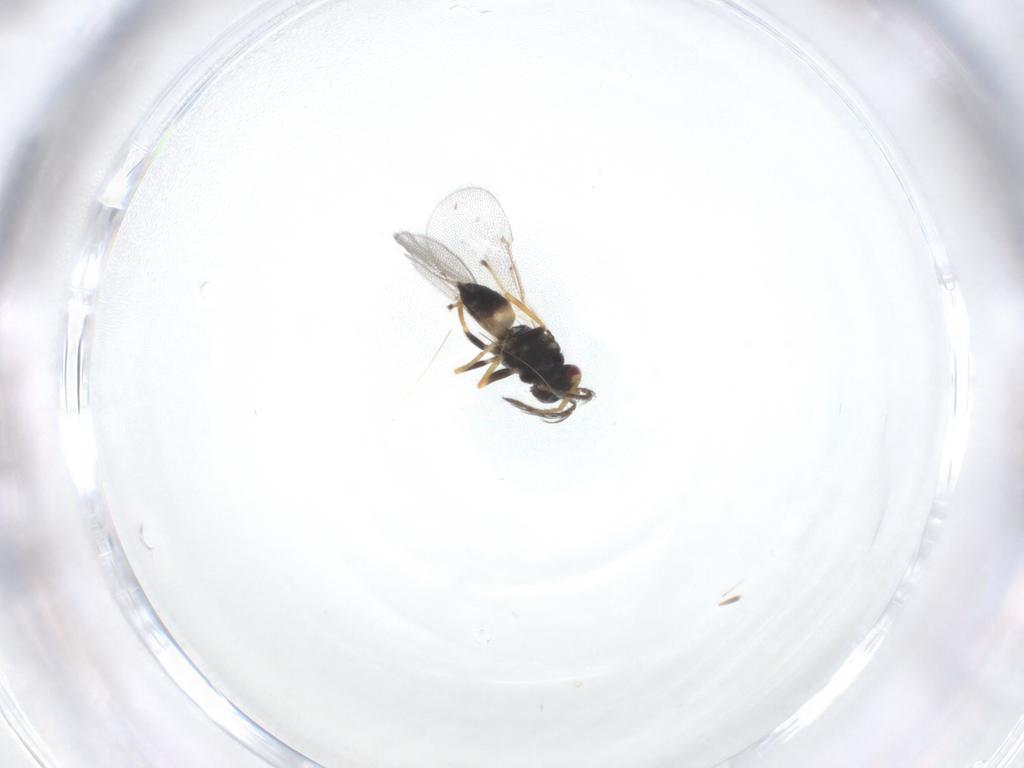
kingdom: Animalia
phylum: Arthropoda
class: Insecta
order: Hymenoptera
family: Eulophidae
